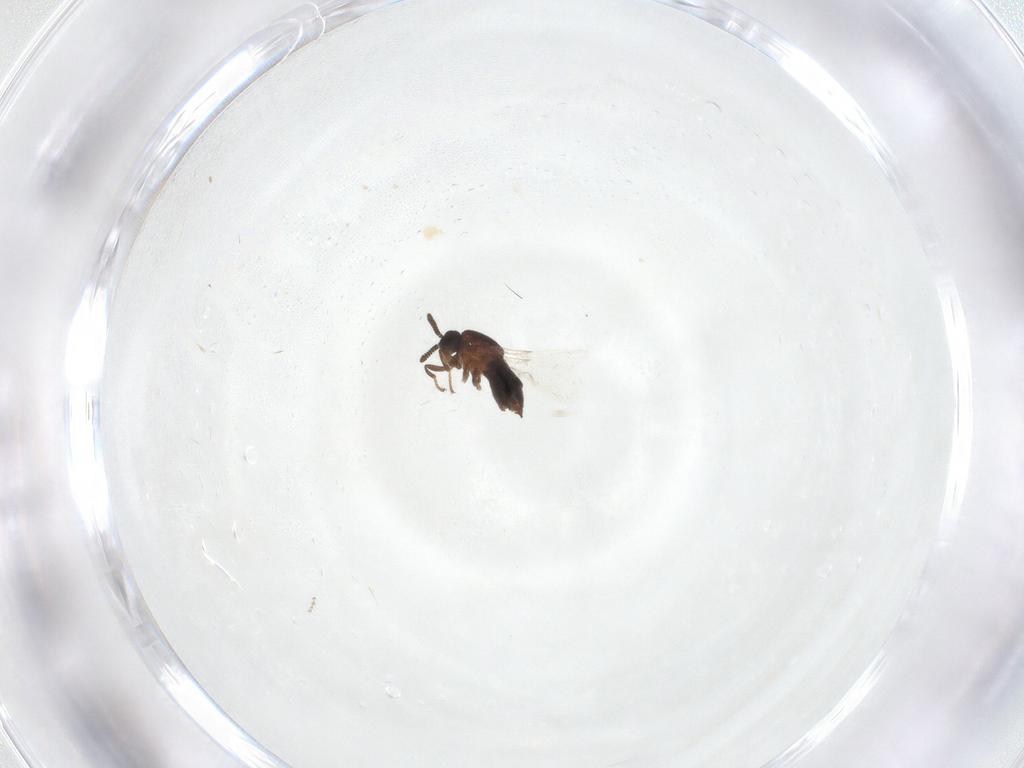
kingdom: Animalia
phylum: Arthropoda
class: Insecta
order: Diptera
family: Scatopsidae
